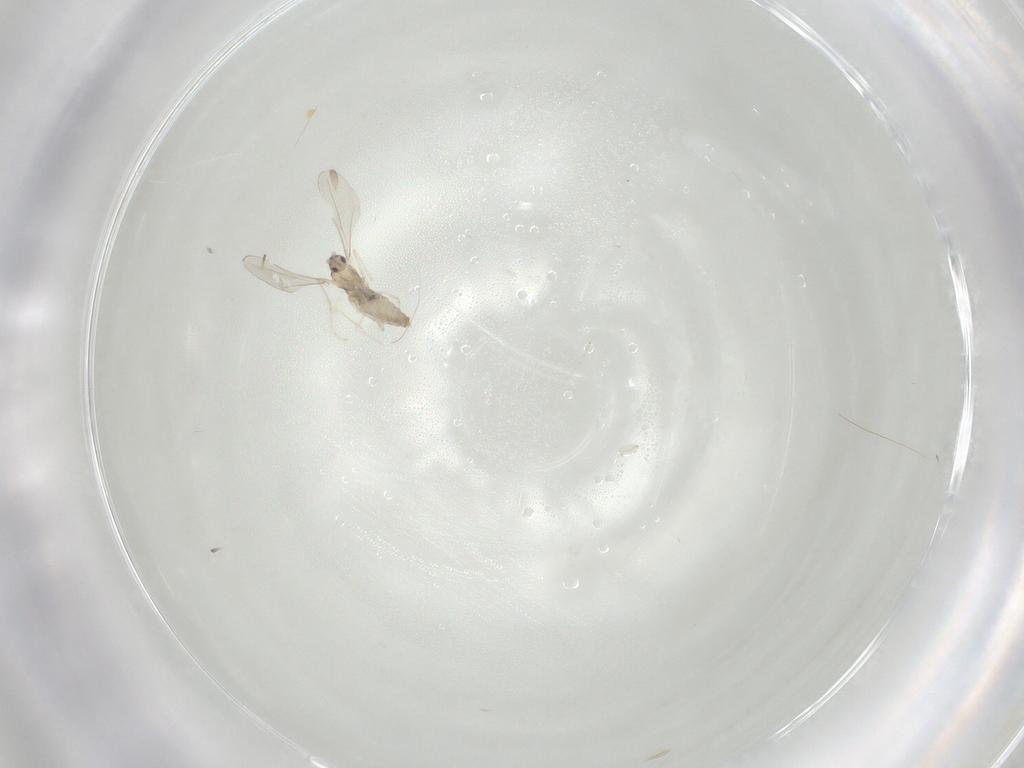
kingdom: Animalia
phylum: Arthropoda
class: Insecta
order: Diptera
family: Cecidomyiidae
